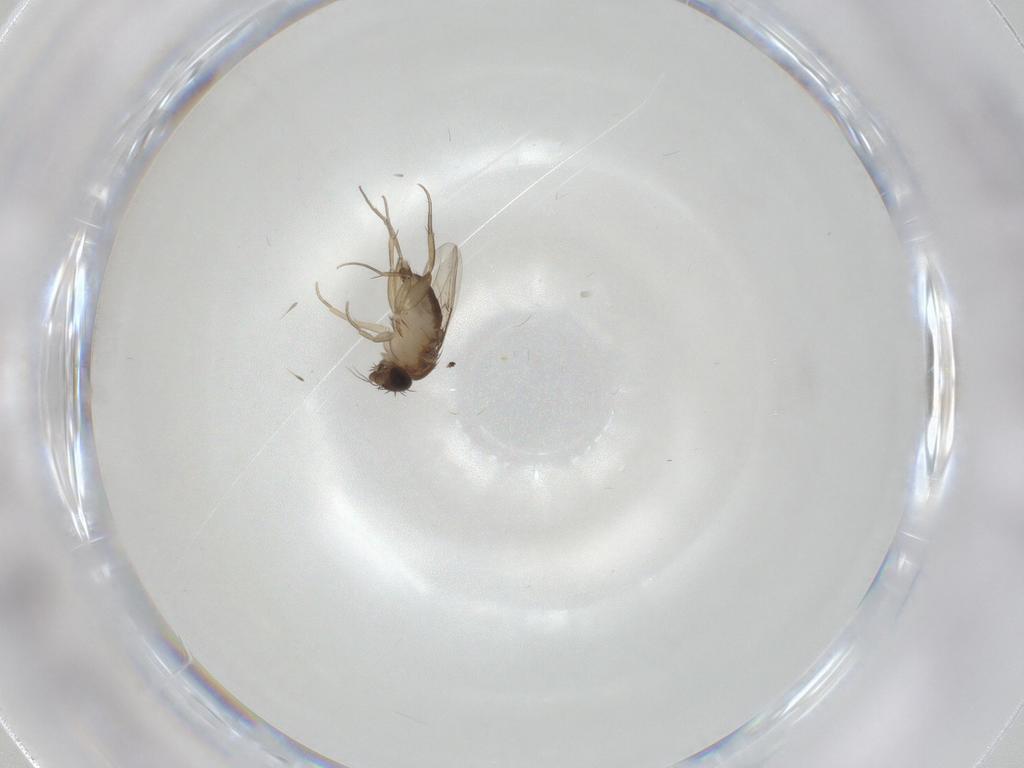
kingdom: Animalia
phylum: Arthropoda
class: Insecta
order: Diptera
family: Phoridae
